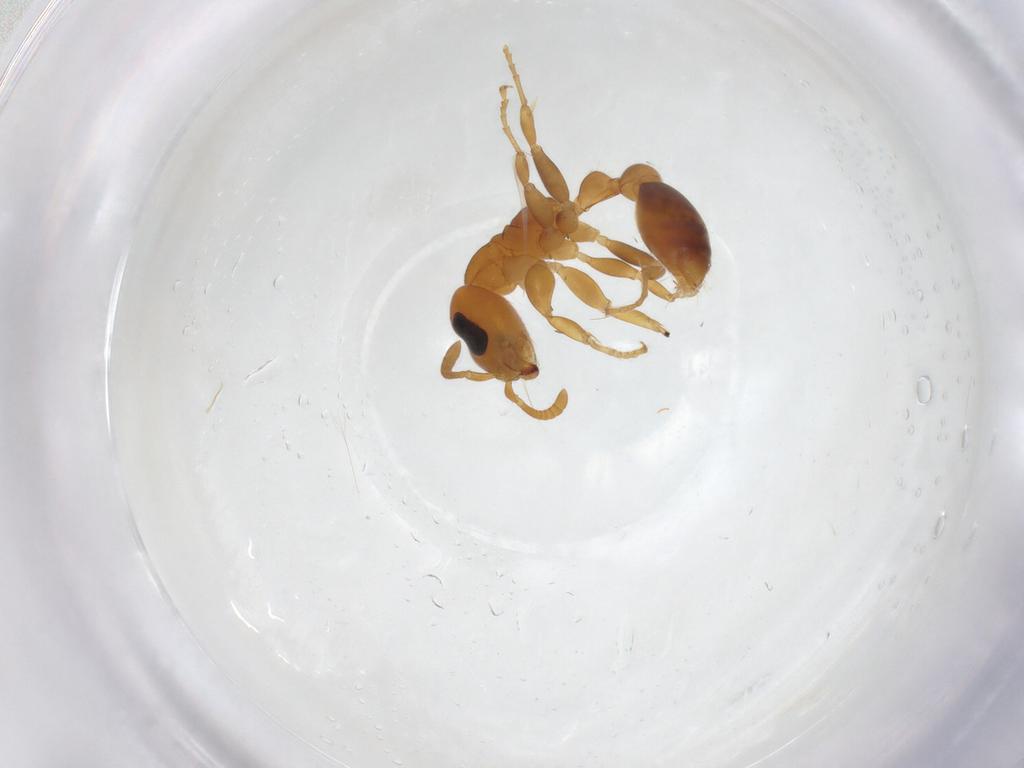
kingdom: Animalia
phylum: Arthropoda
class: Insecta
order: Hymenoptera
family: Formicidae
